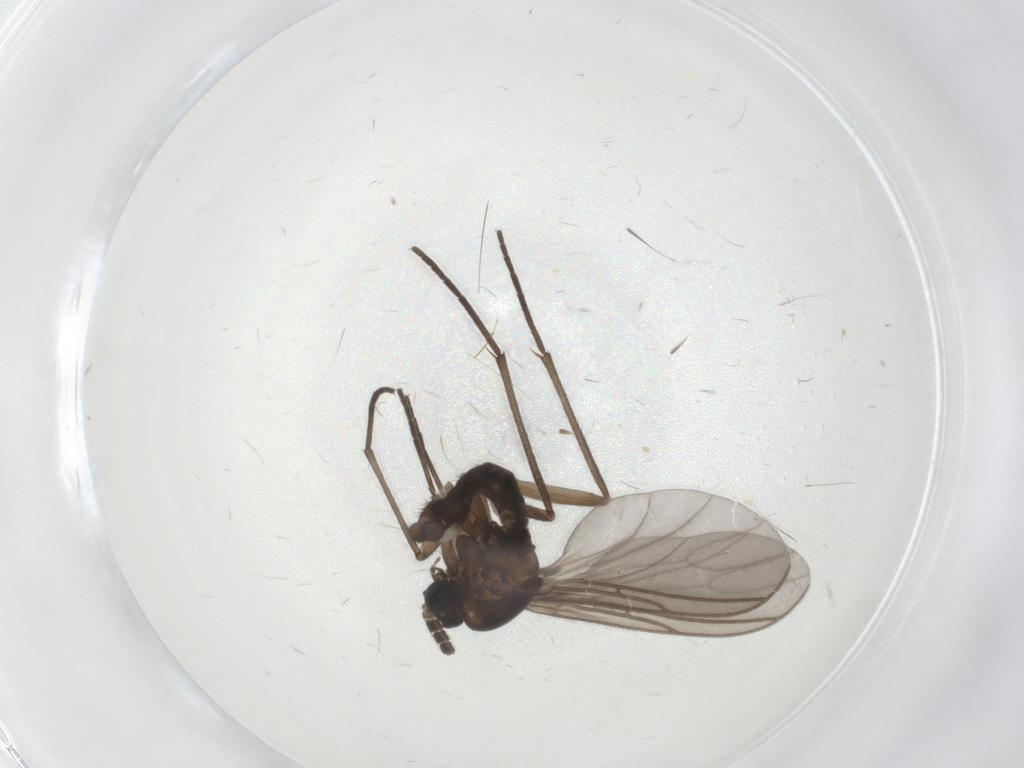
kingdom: Animalia
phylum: Arthropoda
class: Insecta
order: Diptera
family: Sciaridae
